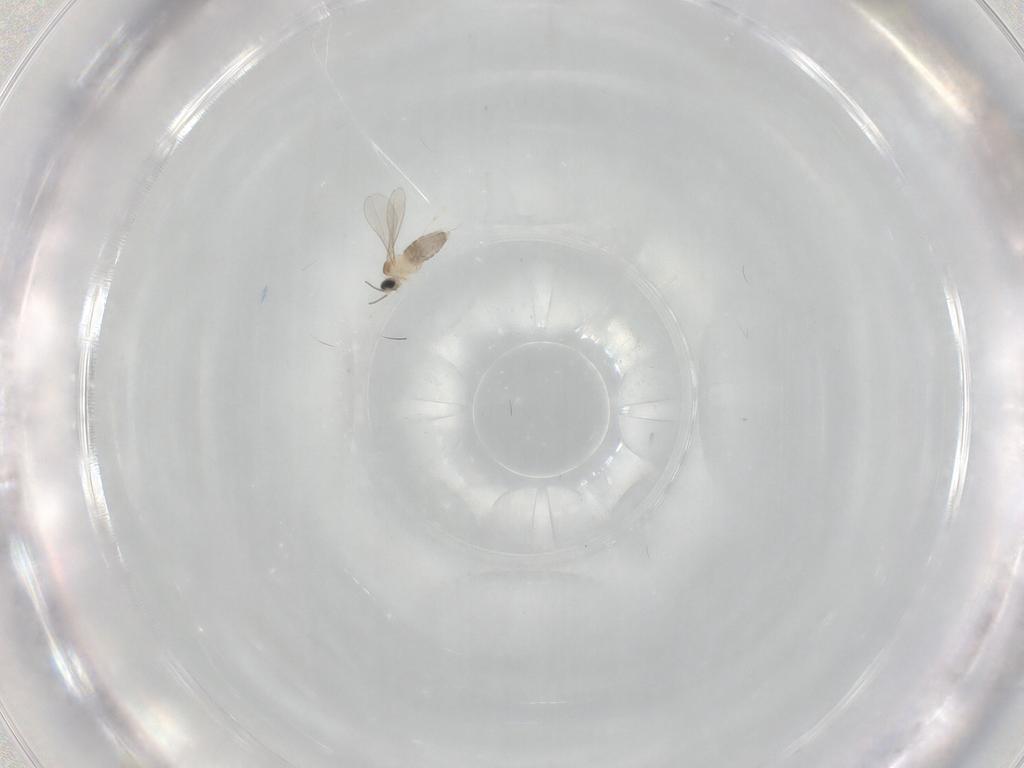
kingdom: Animalia
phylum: Arthropoda
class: Insecta
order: Diptera
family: Cecidomyiidae
